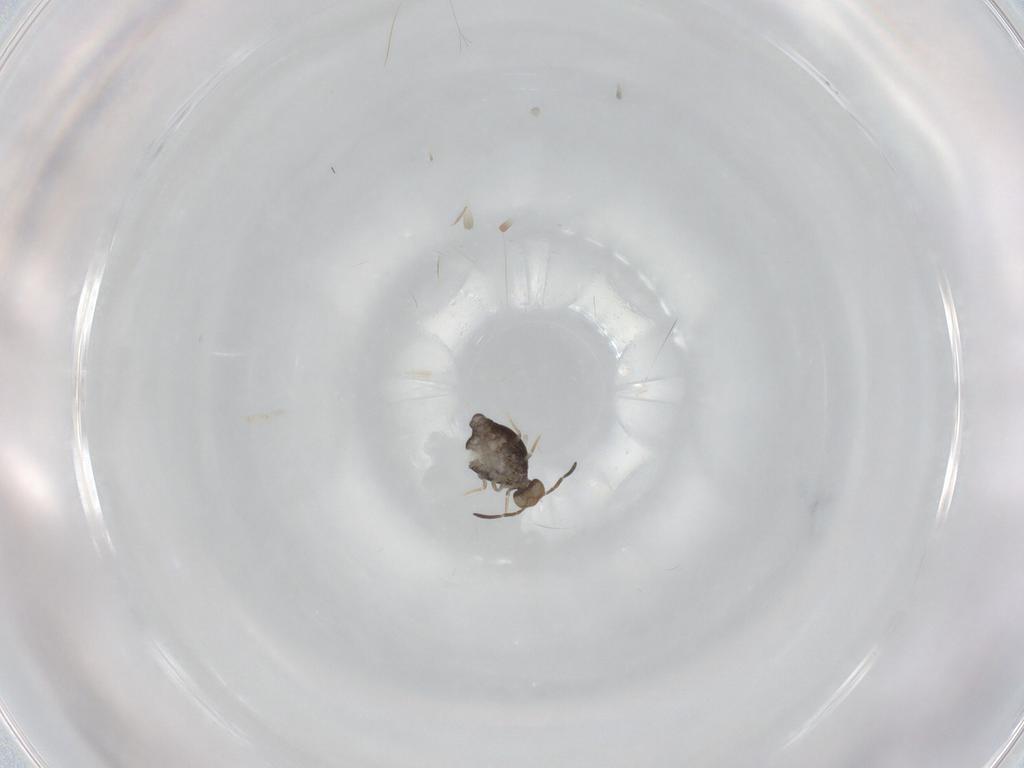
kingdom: Animalia
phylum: Arthropoda
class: Collembola
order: Symphypleona
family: Katiannidae
